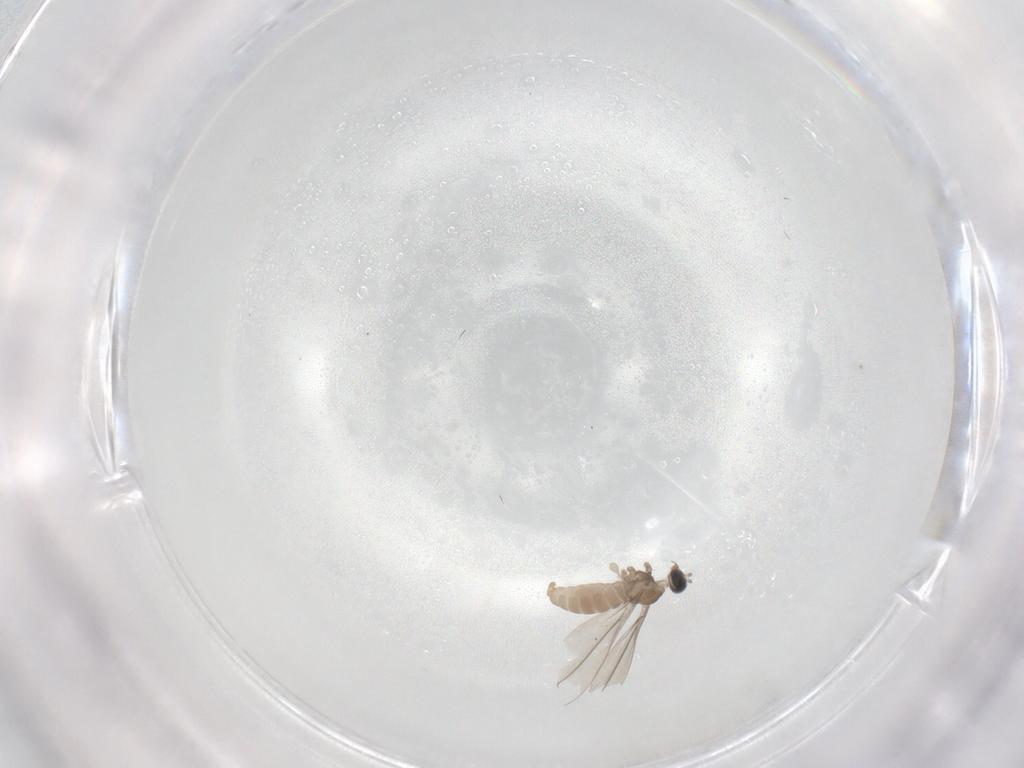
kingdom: Animalia
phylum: Arthropoda
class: Insecta
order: Diptera
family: Cecidomyiidae
